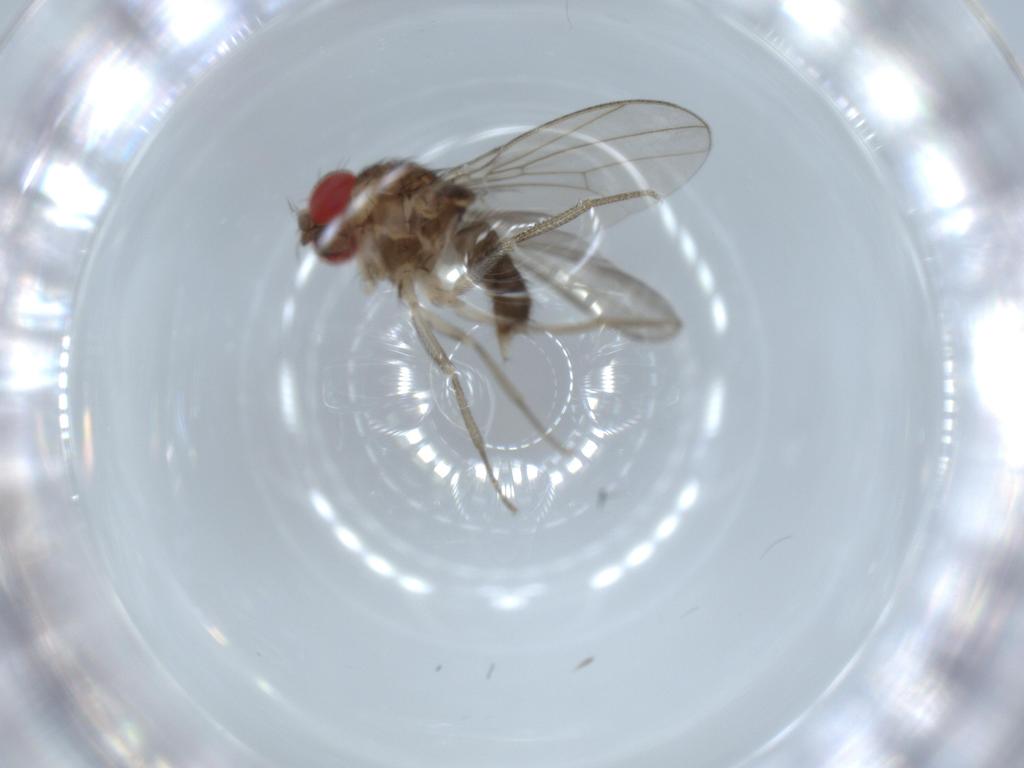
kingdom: Animalia
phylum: Arthropoda
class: Insecta
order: Diptera
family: Drosophilidae
